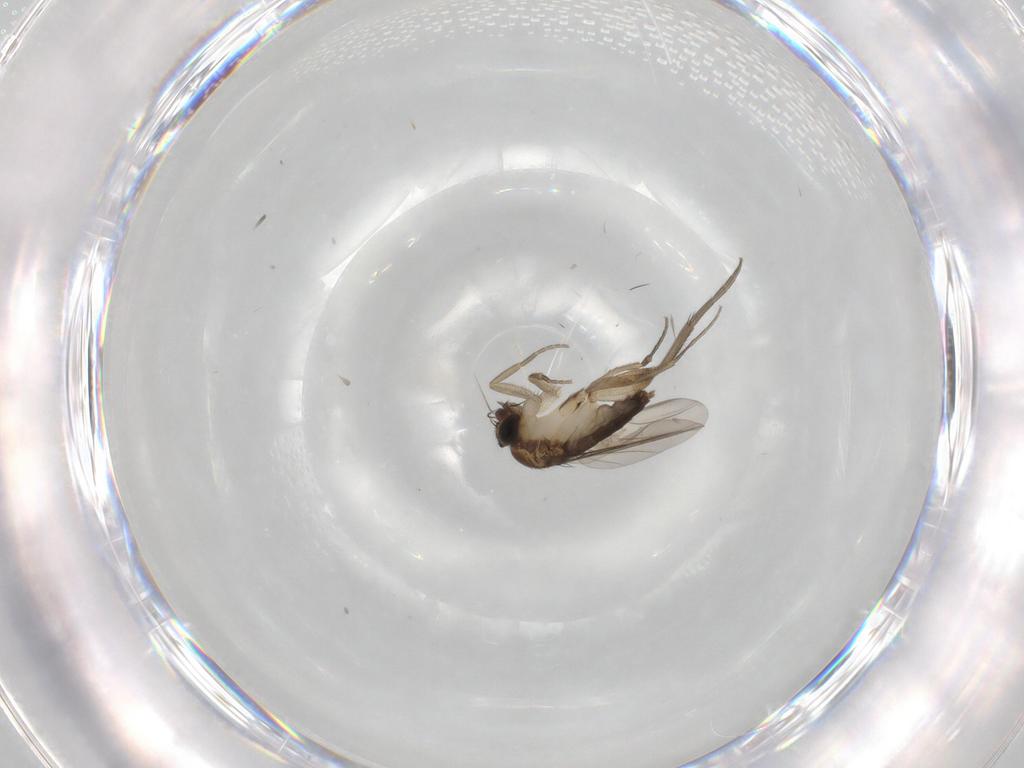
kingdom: Animalia
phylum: Arthropoda
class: Insecta
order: Diptera
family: Phoridae
